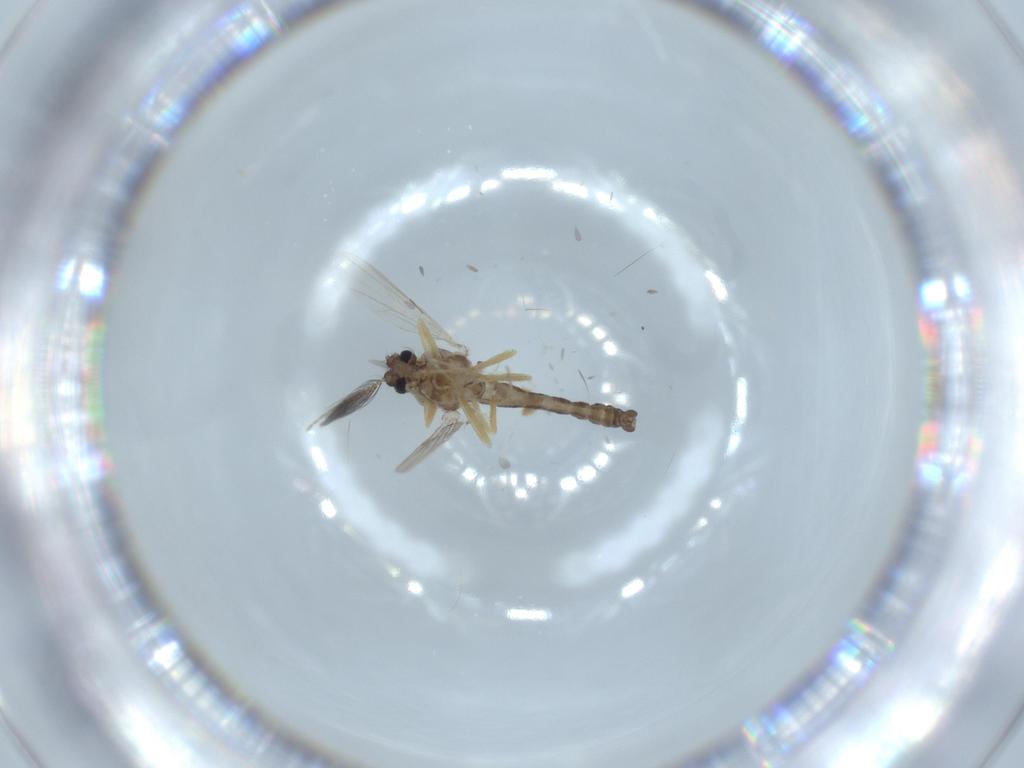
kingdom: Animalia
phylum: Arthropoda
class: Insecta
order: Diptera
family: Ceratopogonidae
